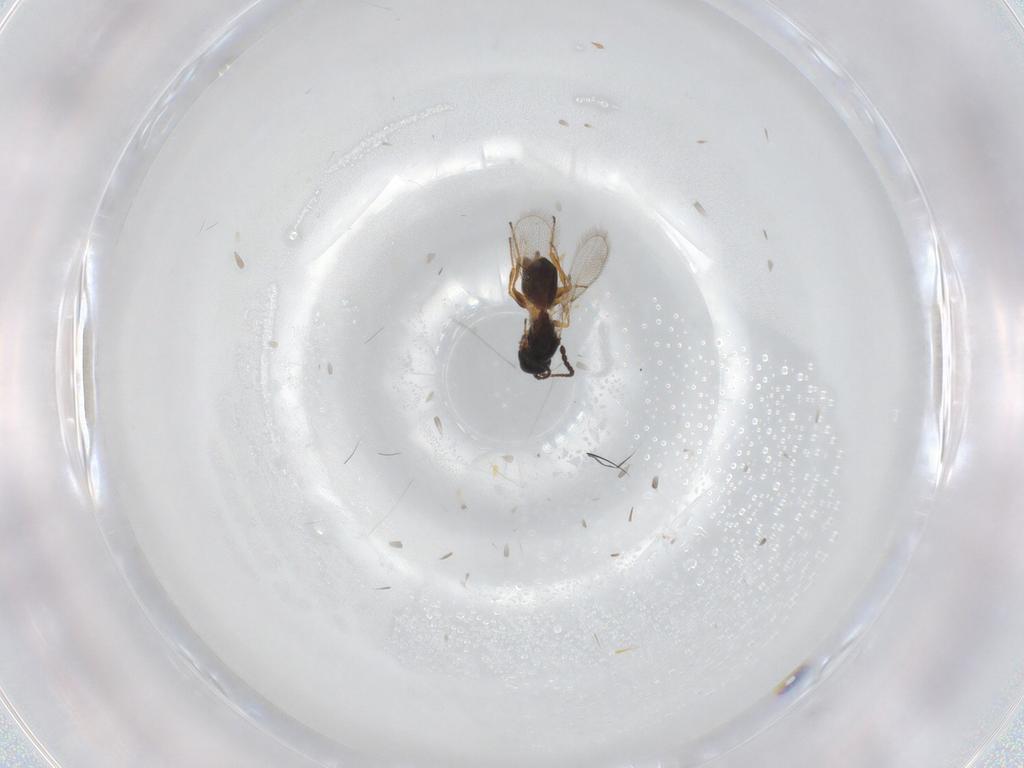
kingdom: Animalia
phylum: Arthropoda
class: Insecta
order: Hymenoptera
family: Figitidae
